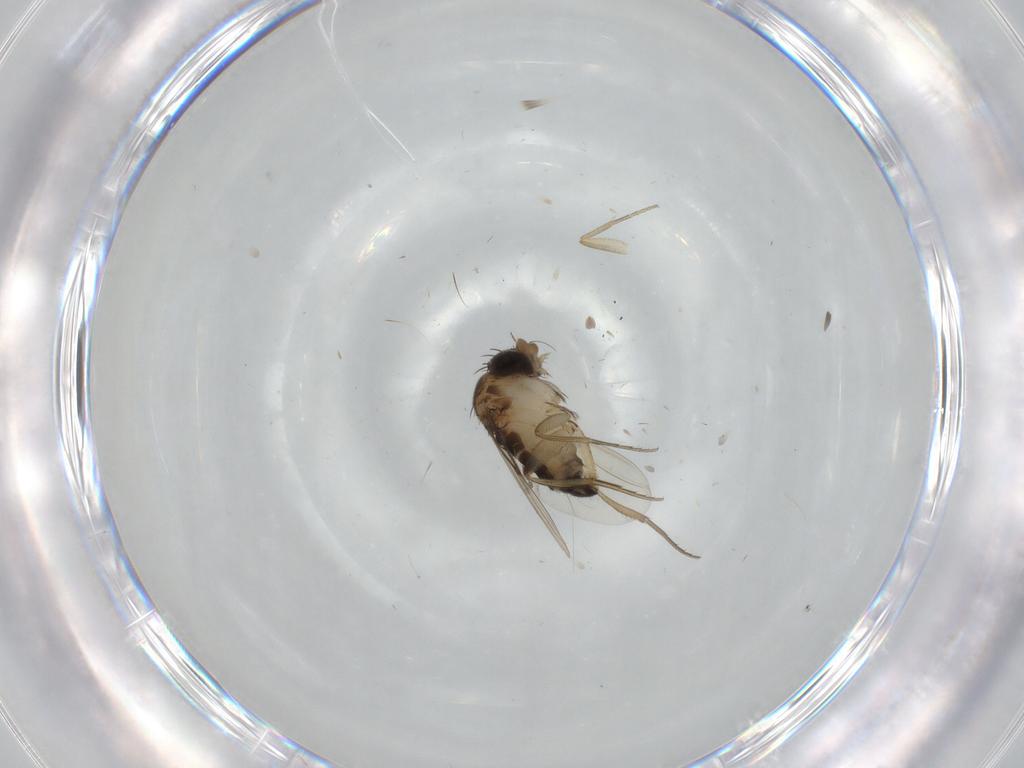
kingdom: Animalia
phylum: Arthropoda
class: Insecta
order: Diptera
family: Phoridae
